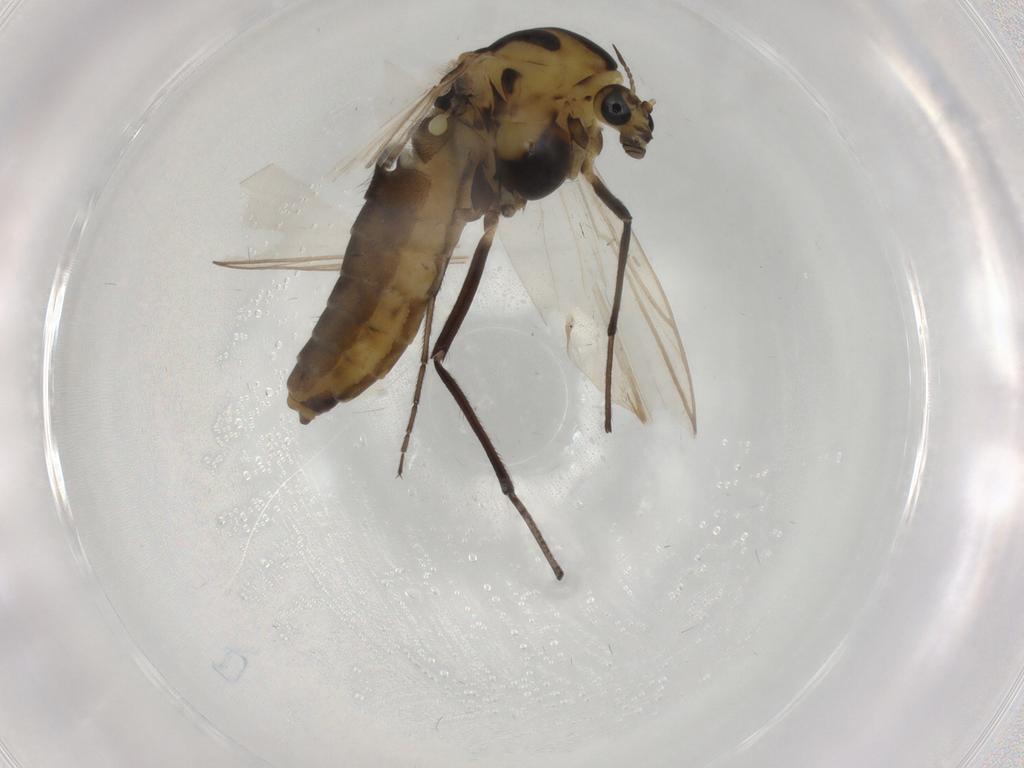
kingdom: Animalia
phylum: Arthropoda
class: Insecta
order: Diptera
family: Chironomidae
